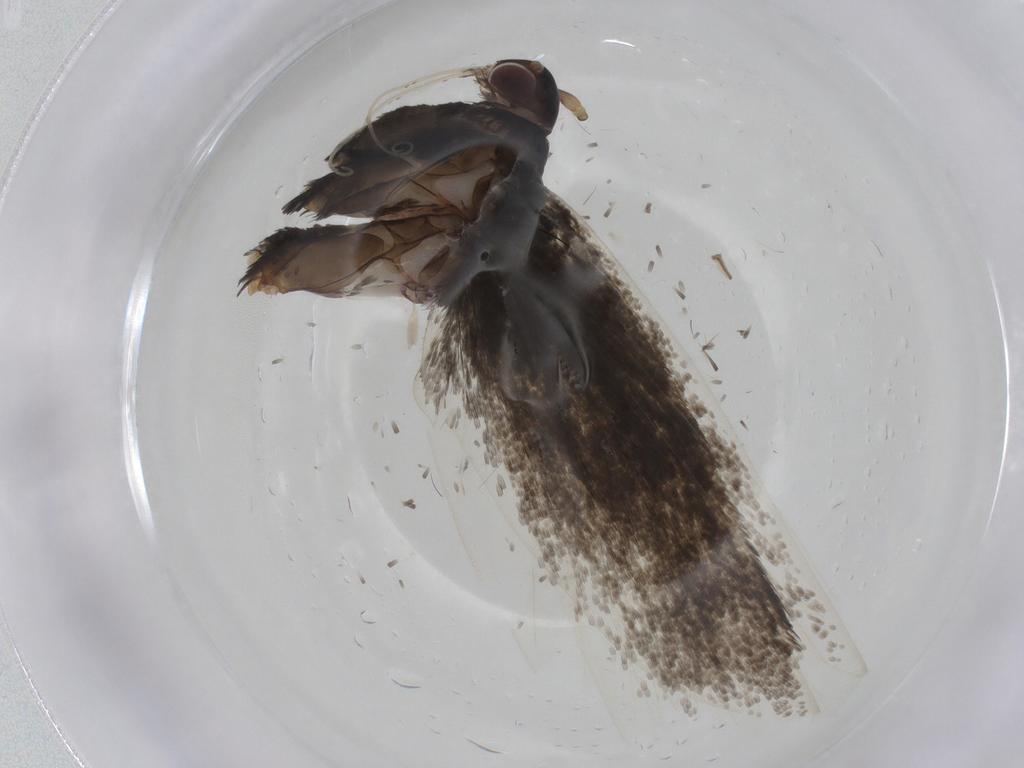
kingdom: Animalia
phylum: Arthropoda
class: Insecta
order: Lepidoptera
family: Lecithoceridae
